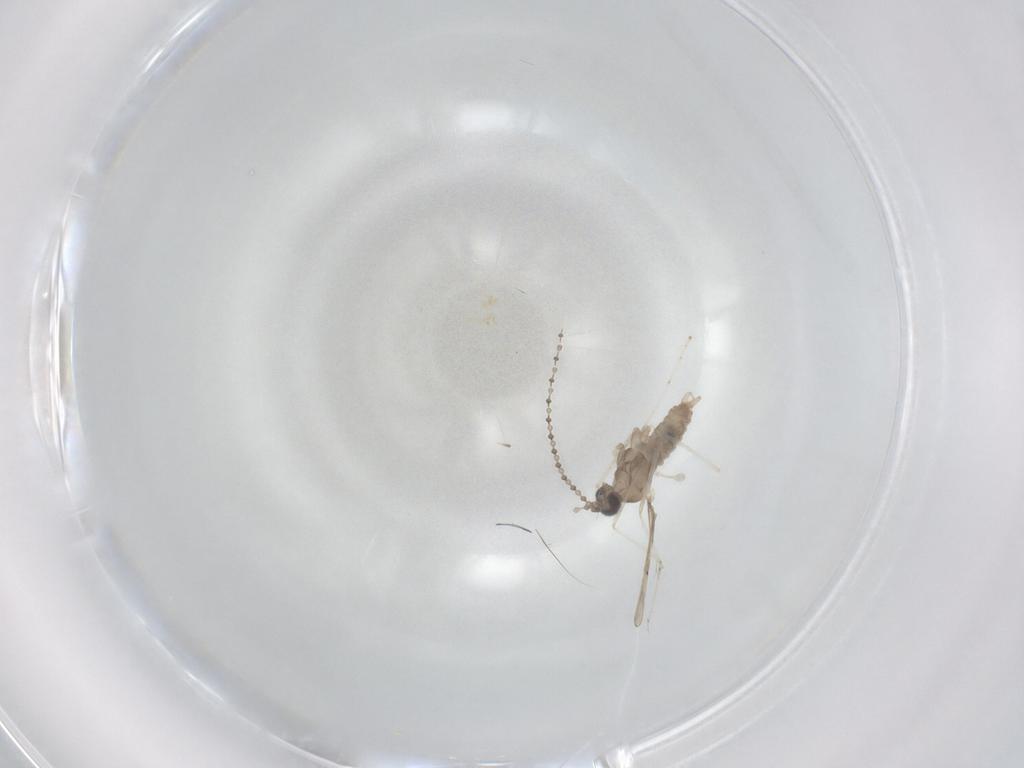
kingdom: Animalia
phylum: Arthropoda
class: Insecta
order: Diptera
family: Cecidomyiidae
